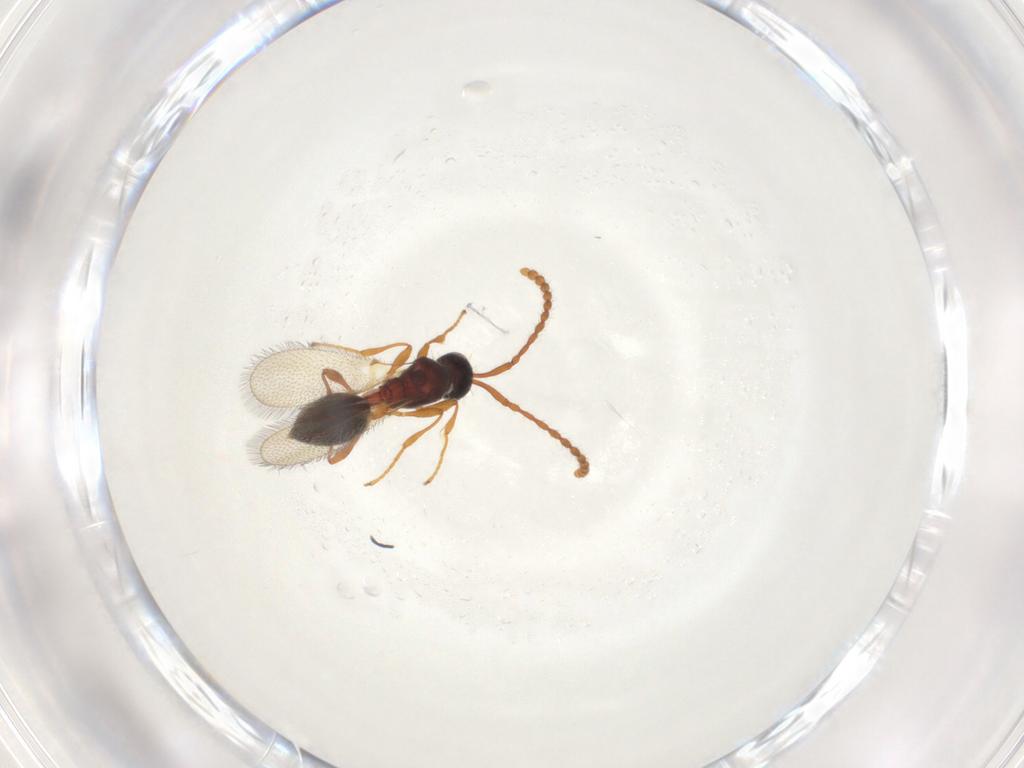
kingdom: Animalia
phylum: Arthropoda
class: Insecta
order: Hymenoptera
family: Diapriidae
